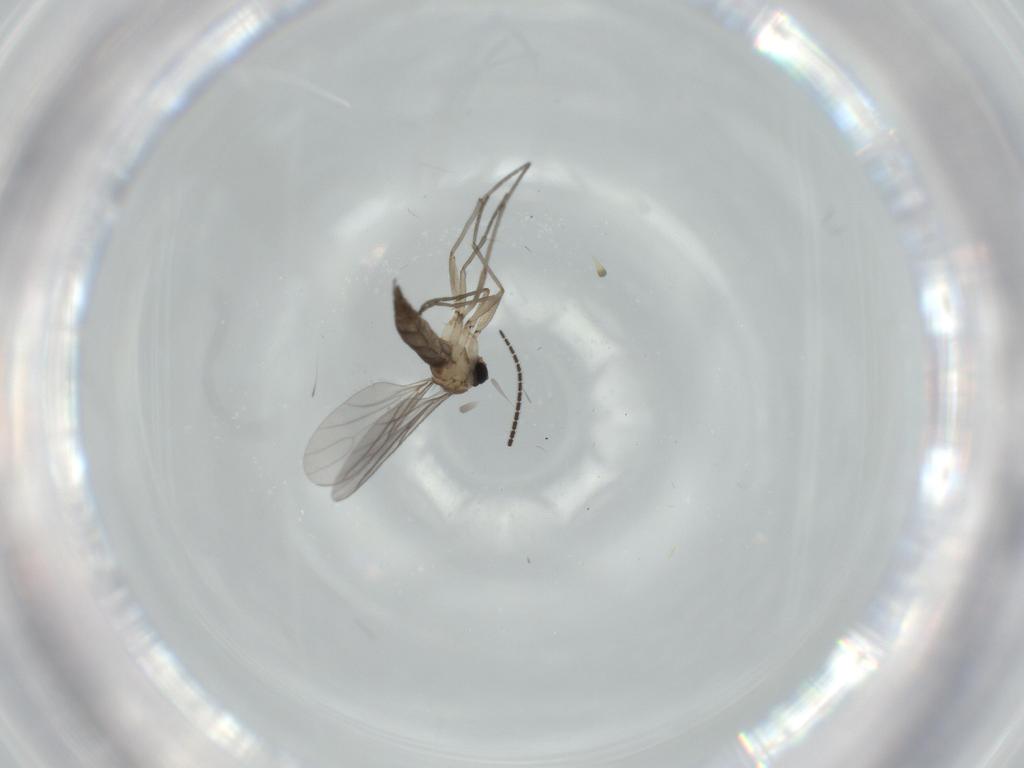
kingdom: Animalia
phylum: Arthropoda
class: Insecta
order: Diptera
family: Sciaridae
